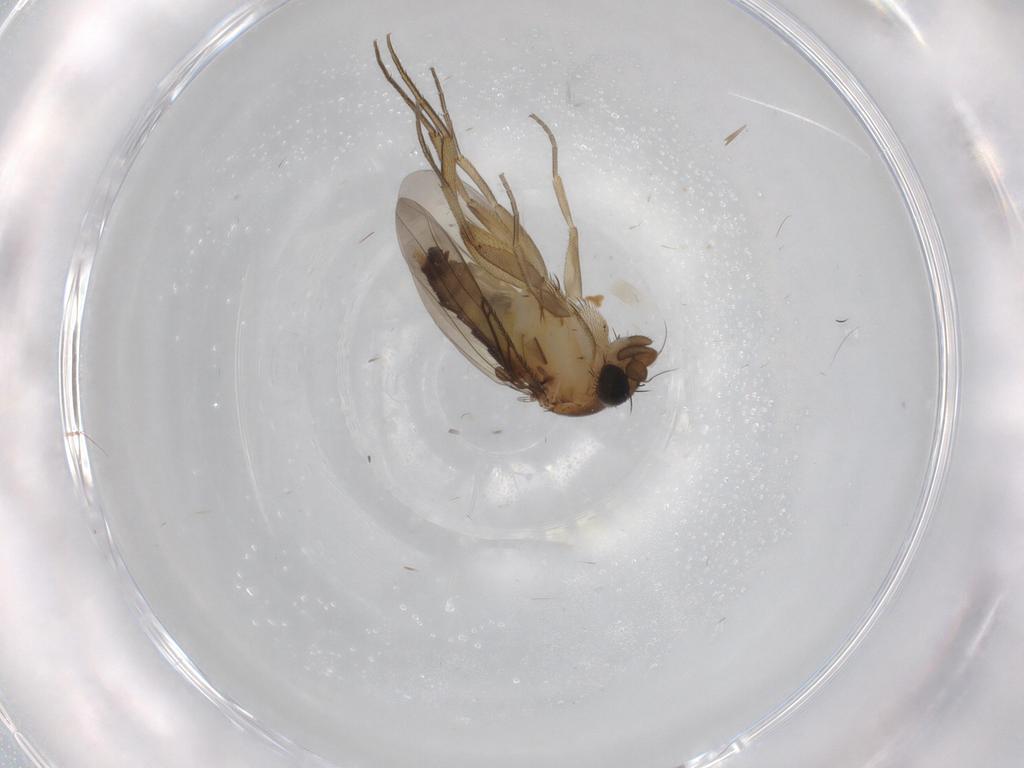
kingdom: Animalia
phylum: Arthropoda
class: Insecta
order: Diptera
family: Phoridae
